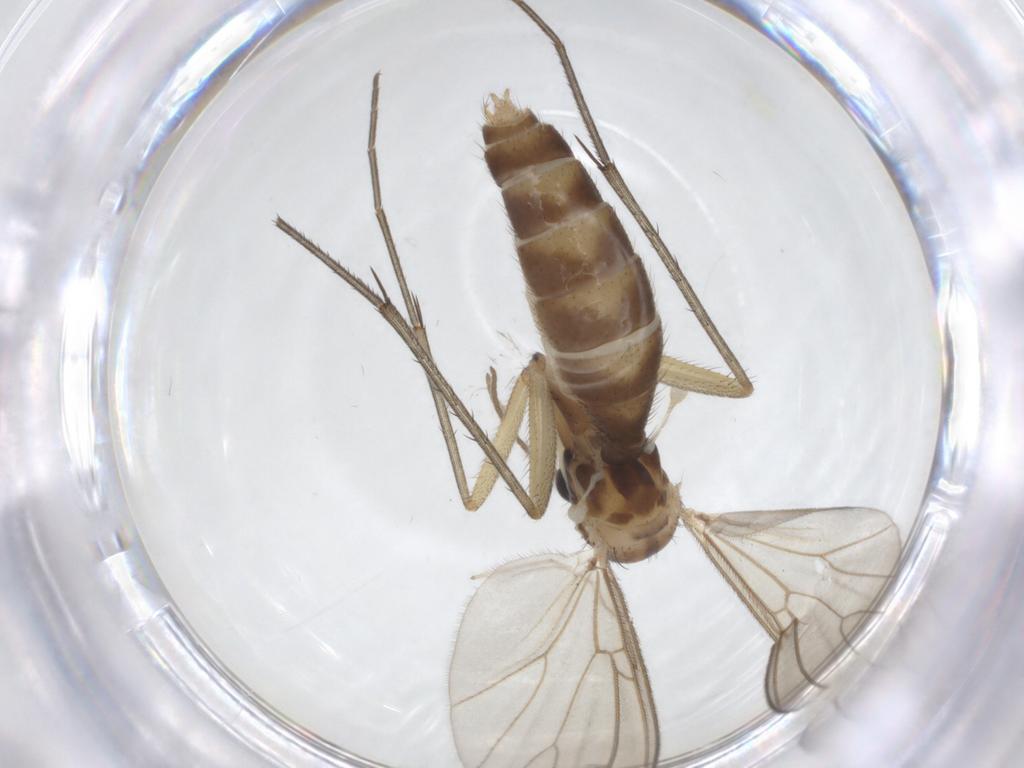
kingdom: Animalia
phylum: Arthropoda
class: Insecta
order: Diptera
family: Mycetophilidae
